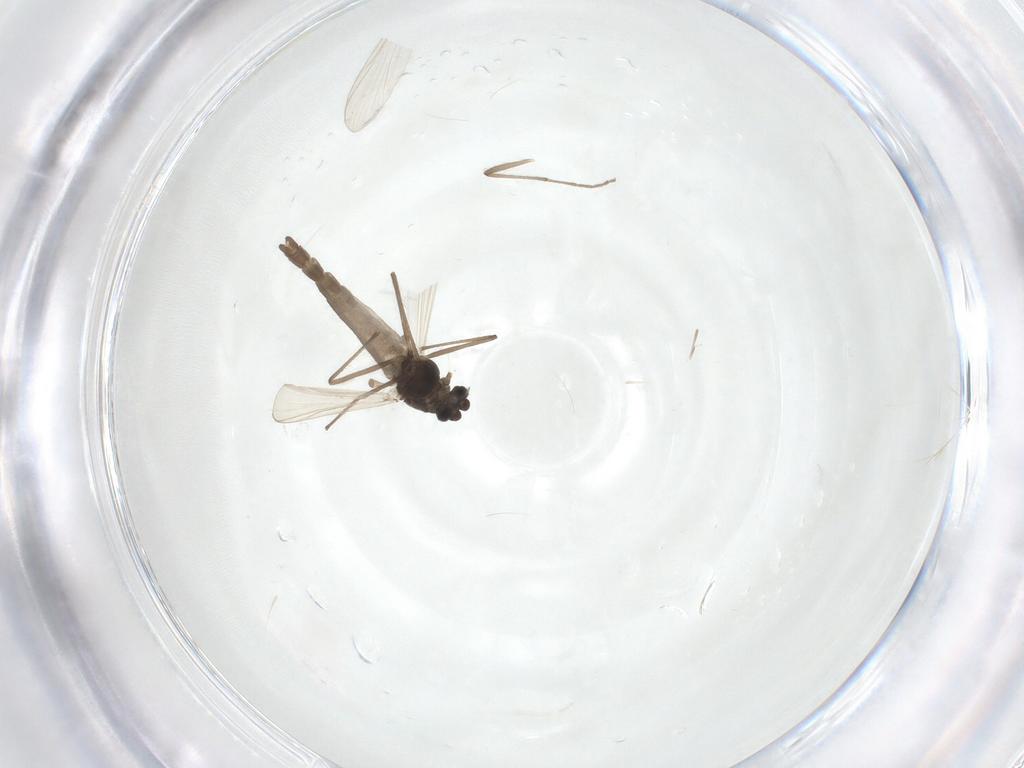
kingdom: Animalia
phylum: Arthropoda
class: Insecta
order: Diptera
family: Chironomidae
